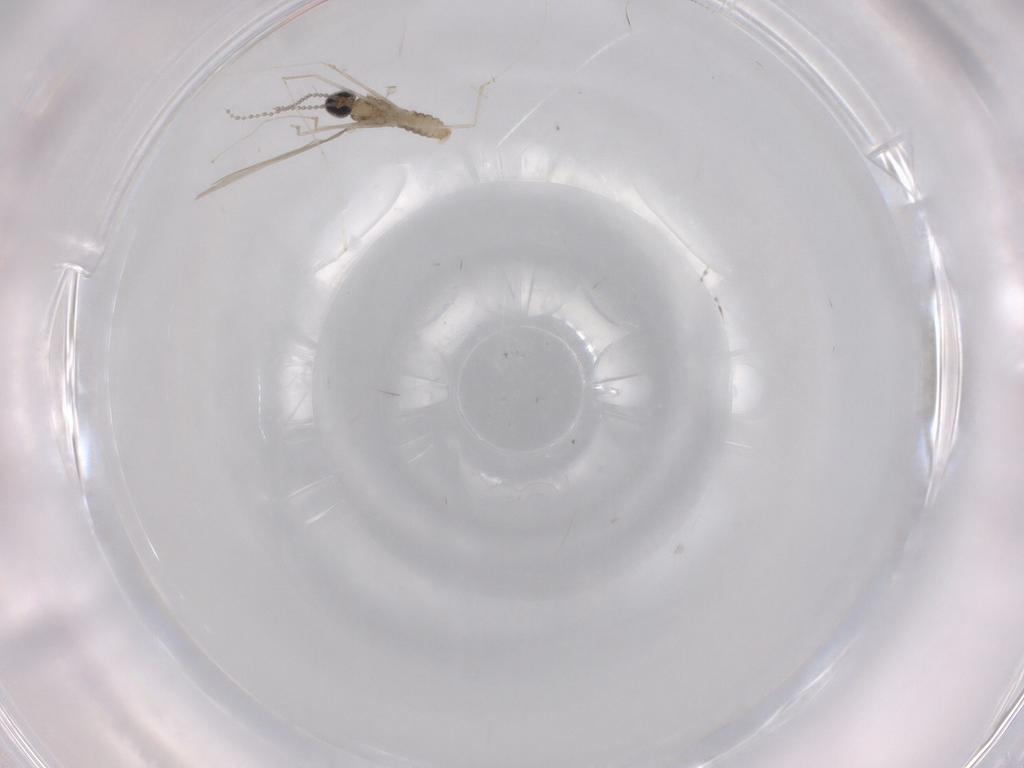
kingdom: Animalia
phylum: Arthropoda
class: Insecta
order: Diptera
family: Cecidomyiidae
